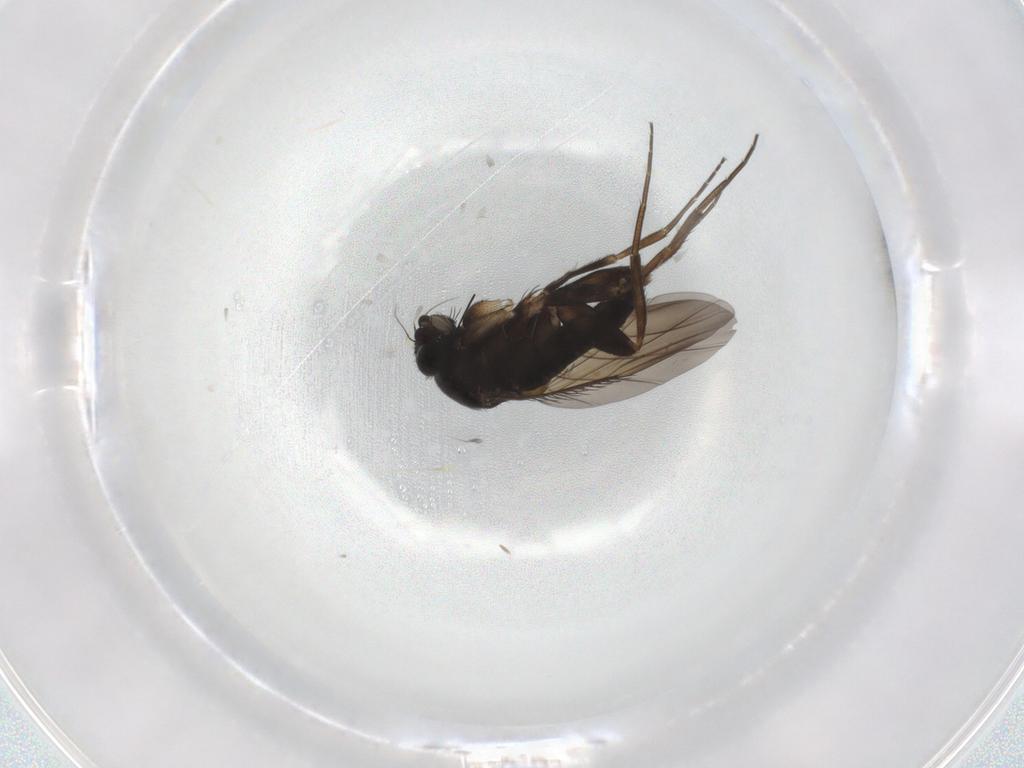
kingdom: Animalia
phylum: Arthropoda
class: Insecta
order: Diptera
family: Phoridae
